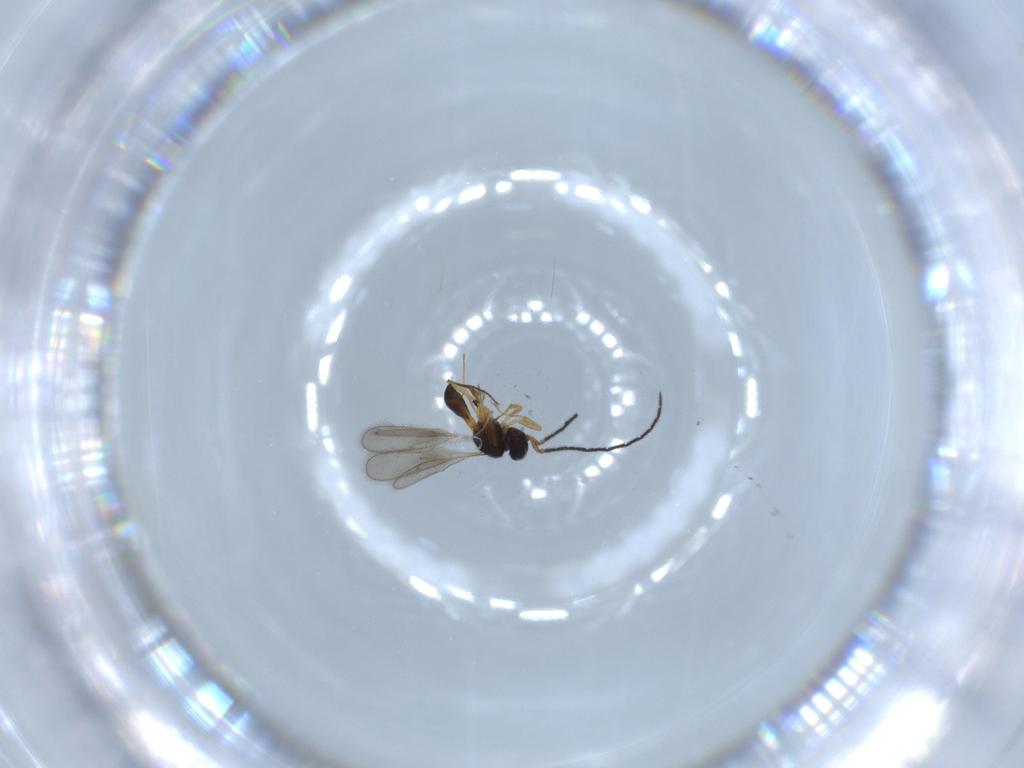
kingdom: Animalia
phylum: Arthropoda
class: Insecta
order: Hymenoptera
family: Scelionidae
